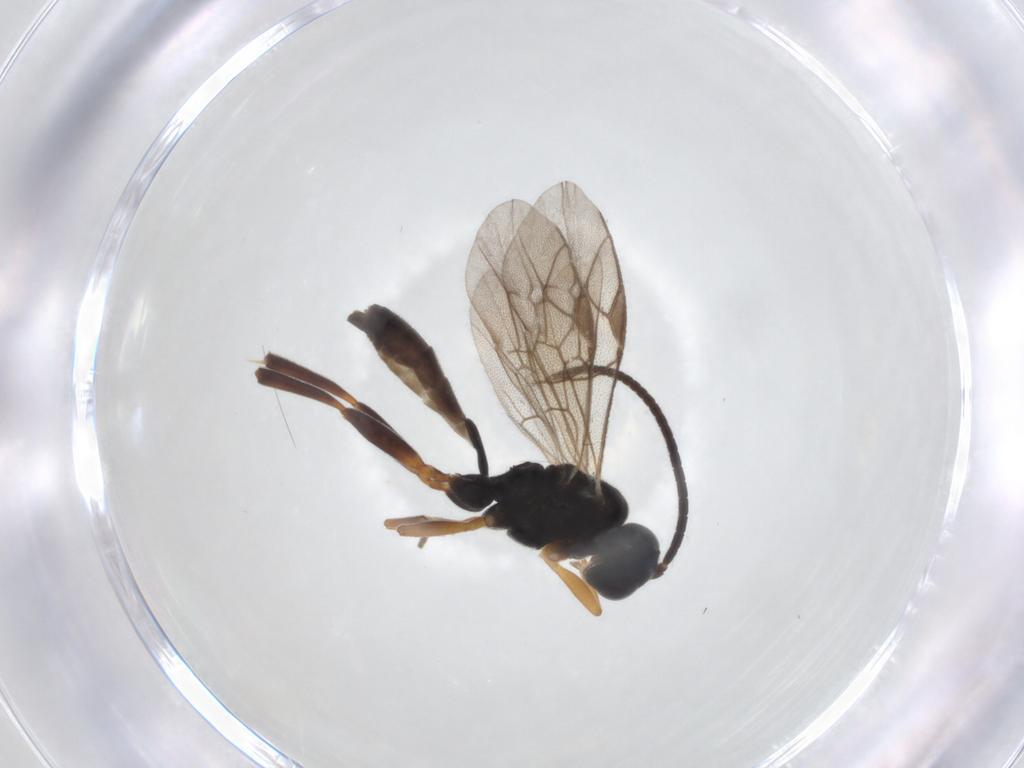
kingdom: Animalia
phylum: Arthropoda
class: Insecta
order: Hymenoptera
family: Ichneumonidae
